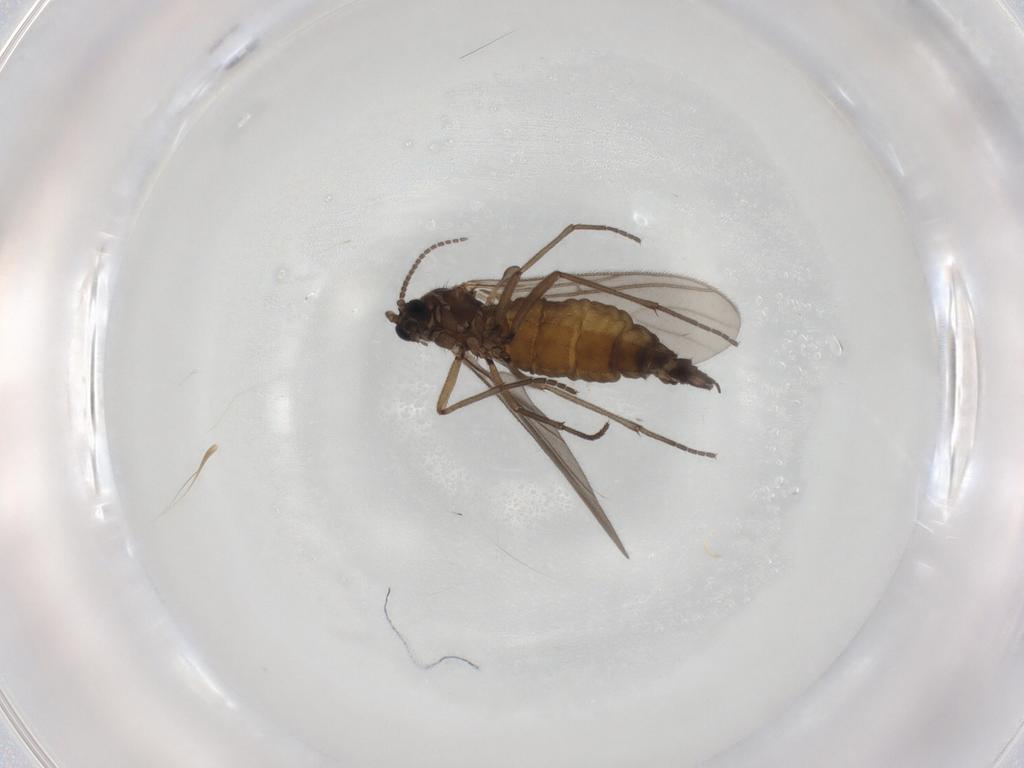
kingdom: Animalia
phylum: Arthropoda
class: Insecta
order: Diptera
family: Sciaridae
